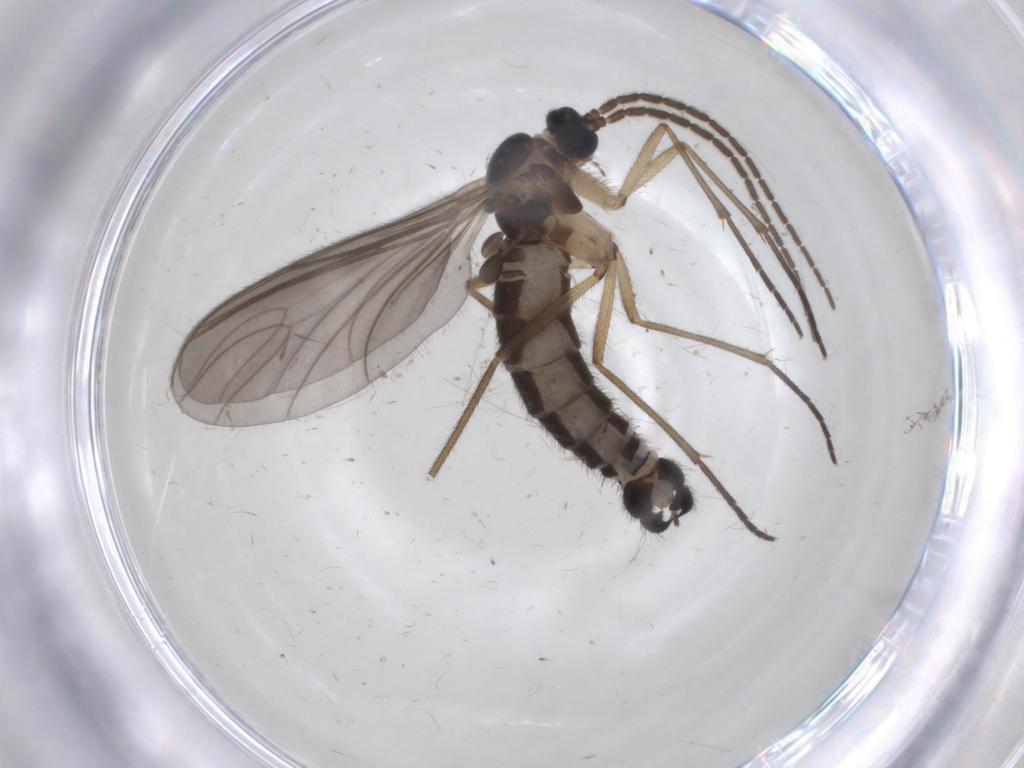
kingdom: Animalia
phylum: Arthropoda
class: Insecta
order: Diptera
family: Sciaridae
